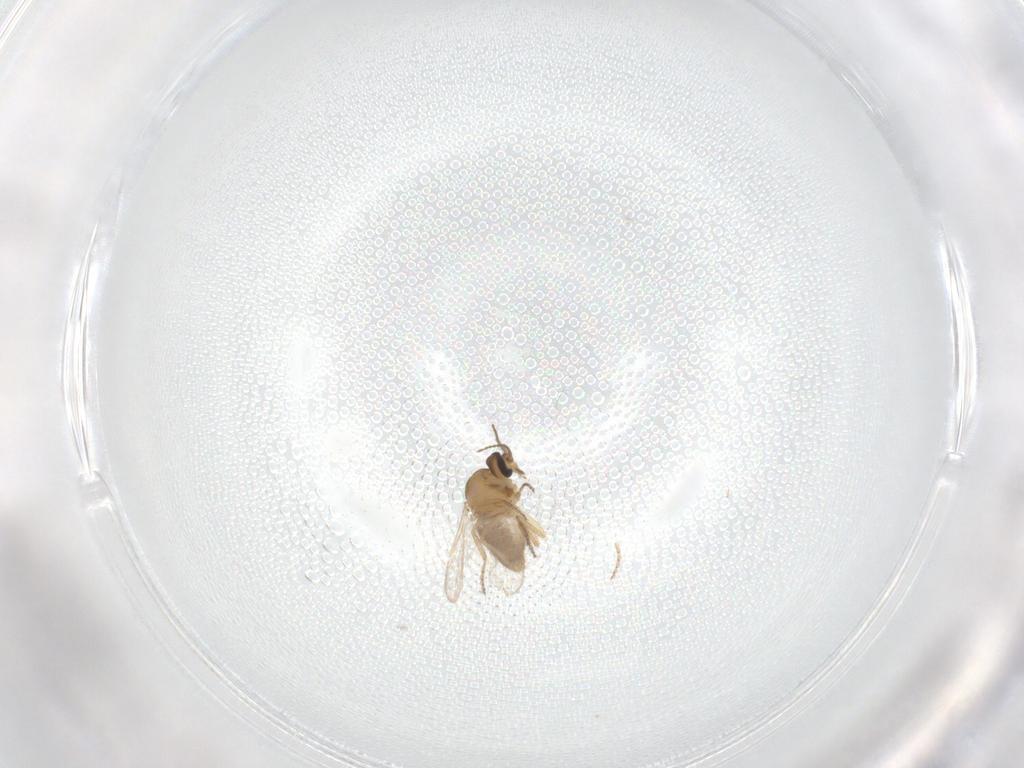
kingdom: Animalia
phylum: Arthropoda
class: Insecta
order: Diptera
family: Ceratopogonidae
